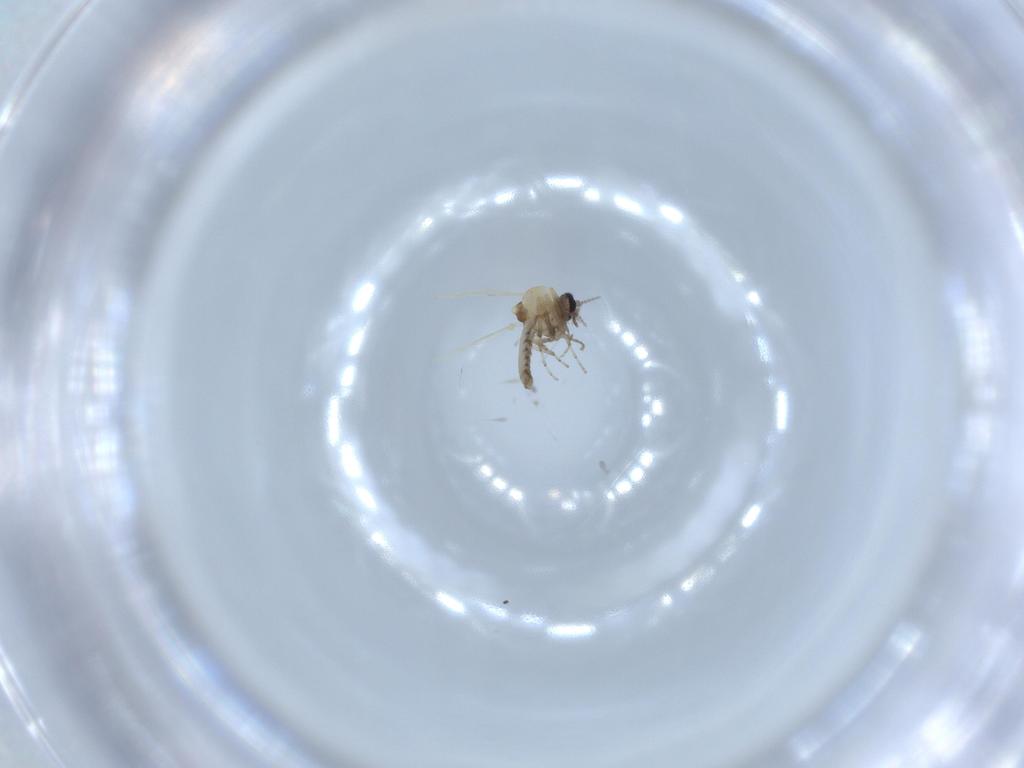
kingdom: Animalia
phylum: Arthropoda
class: Insecta
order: Diptera
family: Ceratopogonidae
